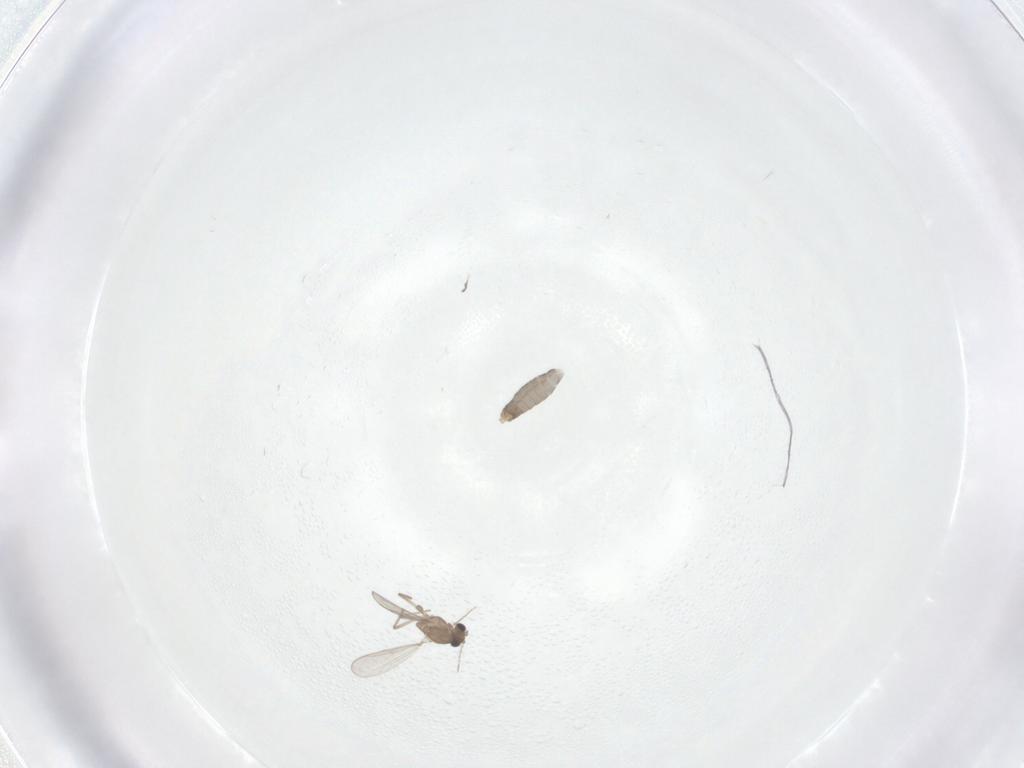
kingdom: Animalia
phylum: Arthropoda
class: Insecta
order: Diptera
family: Chironomidae
